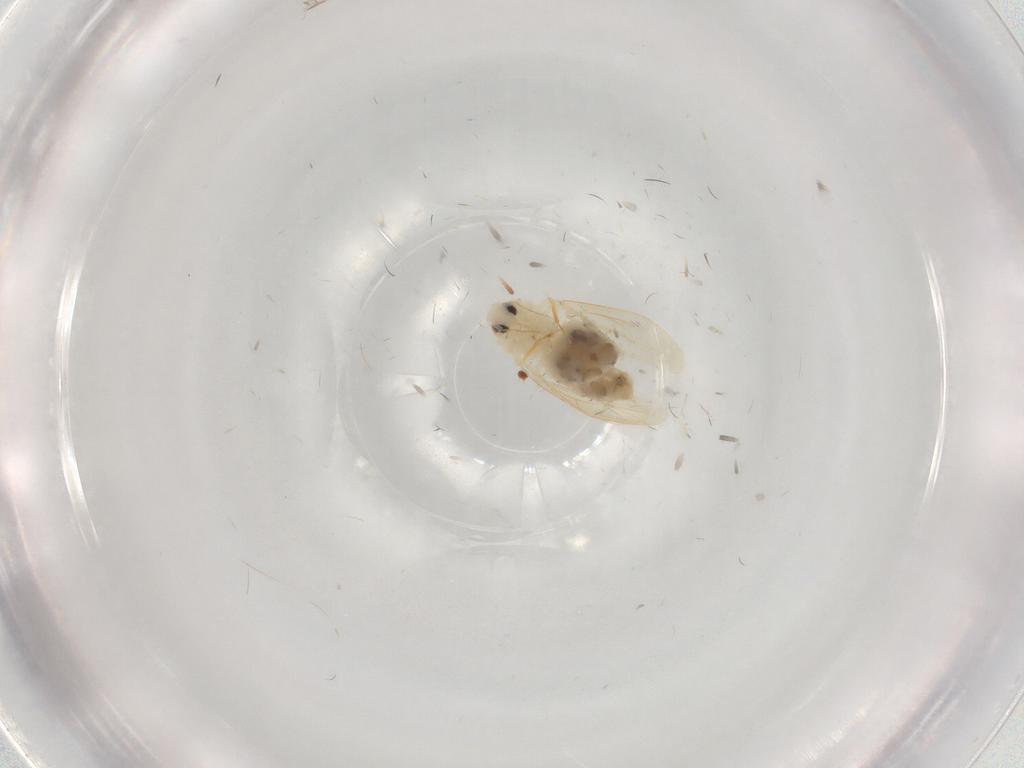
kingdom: Animalia
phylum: Arthropoda
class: Insecta
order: Hemiptera
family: Aleyrodidae
